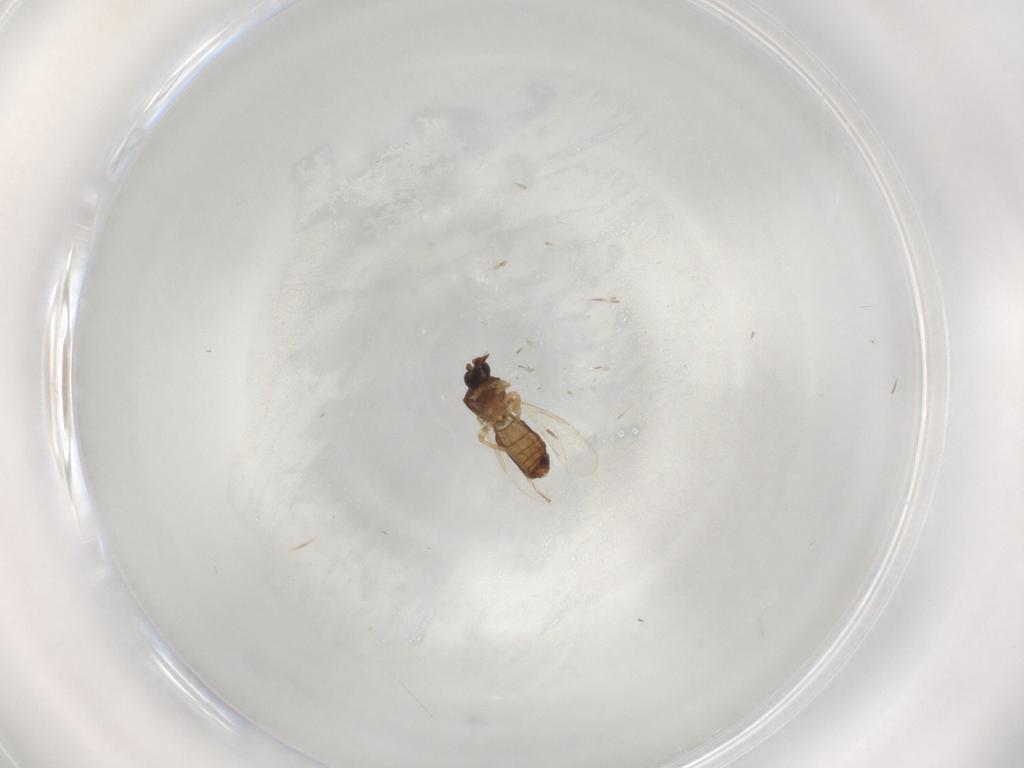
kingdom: Animalia
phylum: Arthropoda
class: Insecta
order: Diptera
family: Ceratopogonidae
